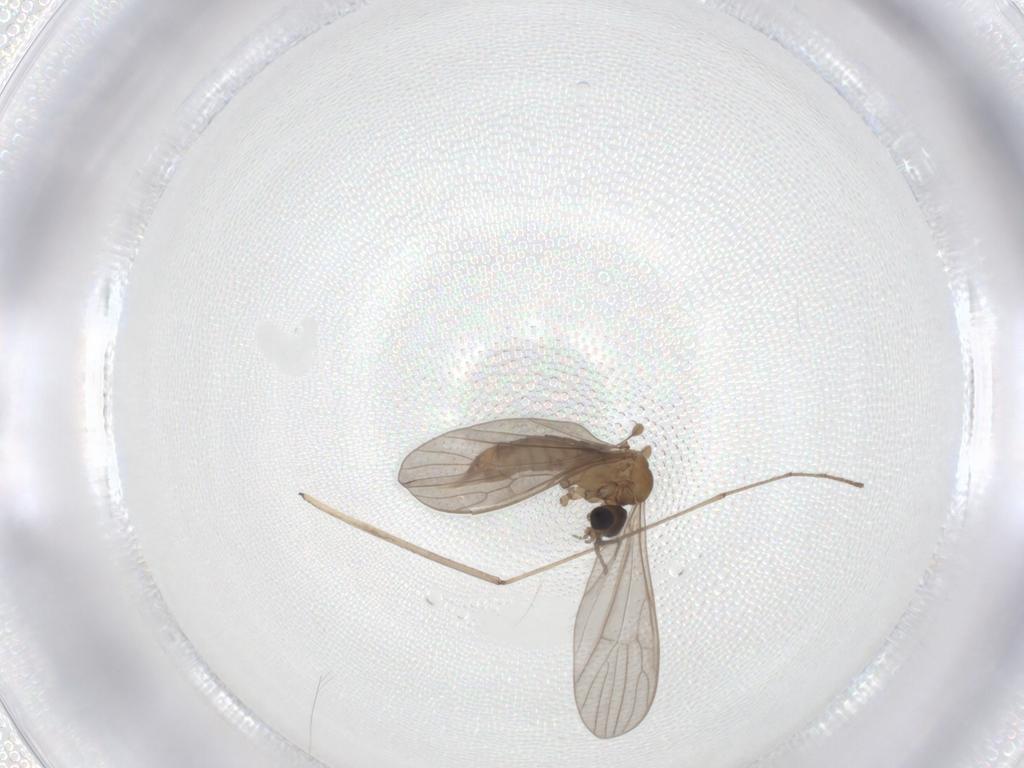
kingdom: Animalia
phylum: Arthropoda
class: Insecta
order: Diptera
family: Limoniidae
